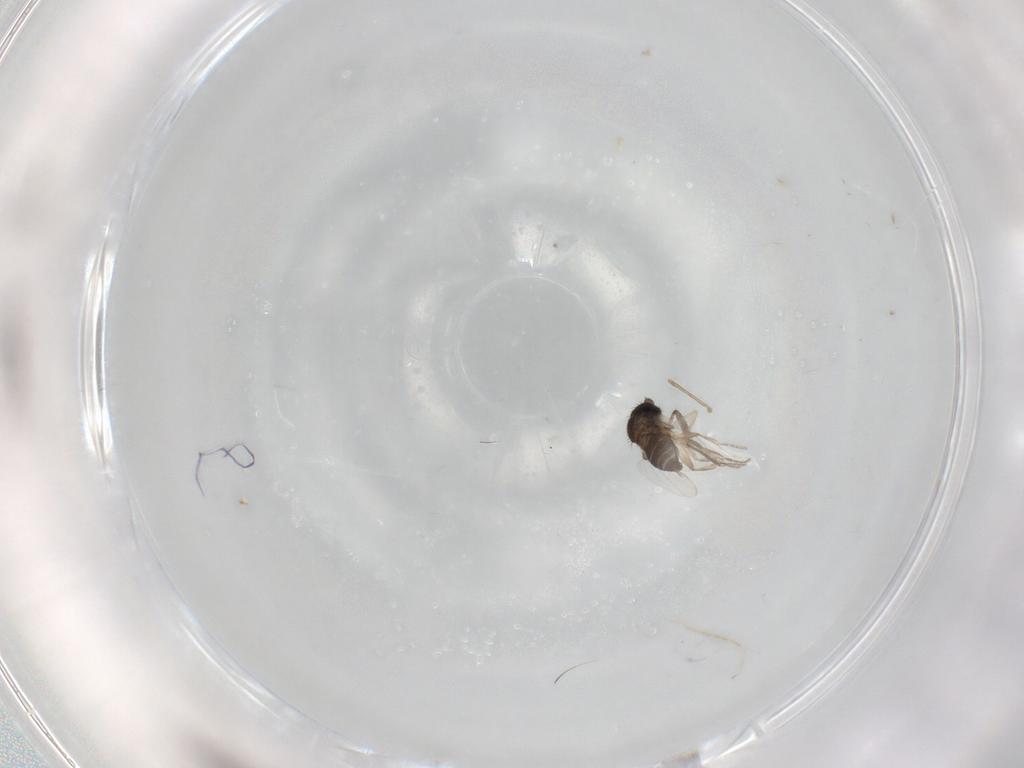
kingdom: Animalia
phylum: Arthropoda
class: Insecta
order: Diptera
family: Phoridae
